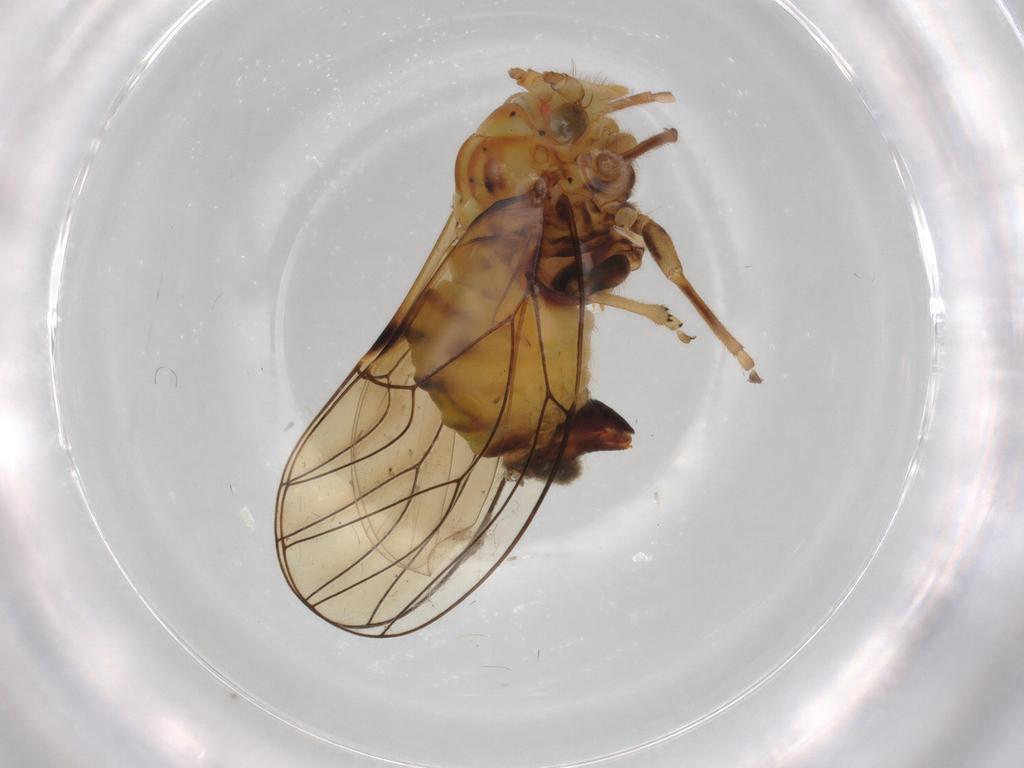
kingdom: Animalia
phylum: Arthropoda
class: Insecta
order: Hemiptera
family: Psyllidae
